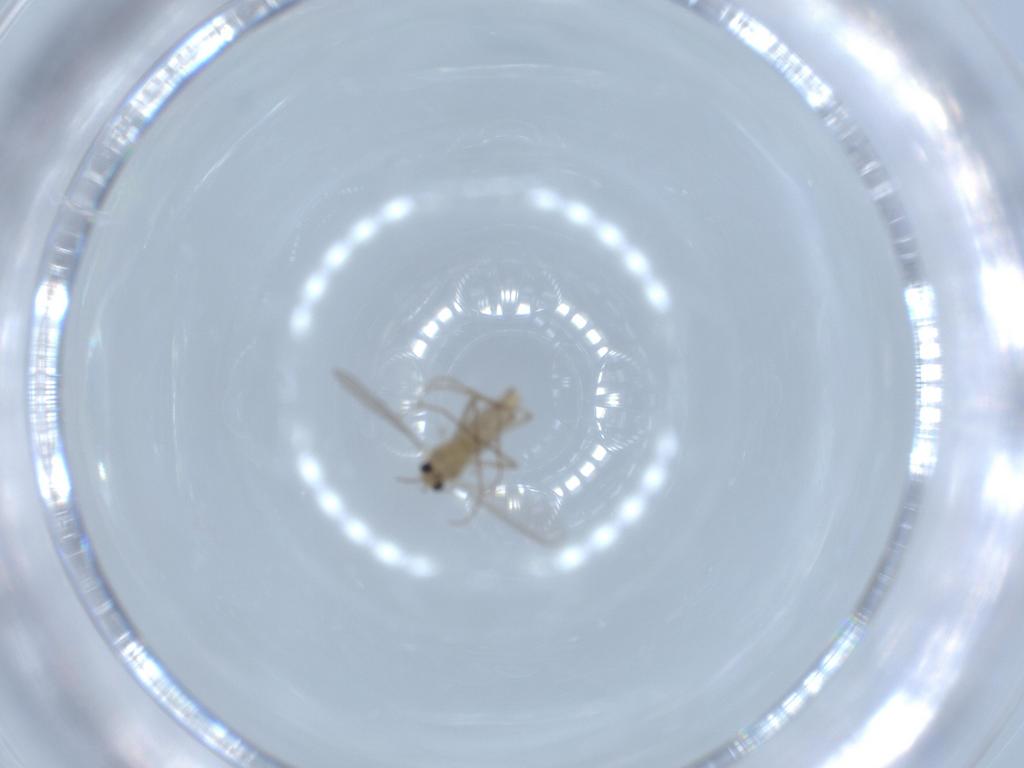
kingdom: Animalia
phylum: Arthropoda
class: Insecta
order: Diptera
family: Chironomidae
